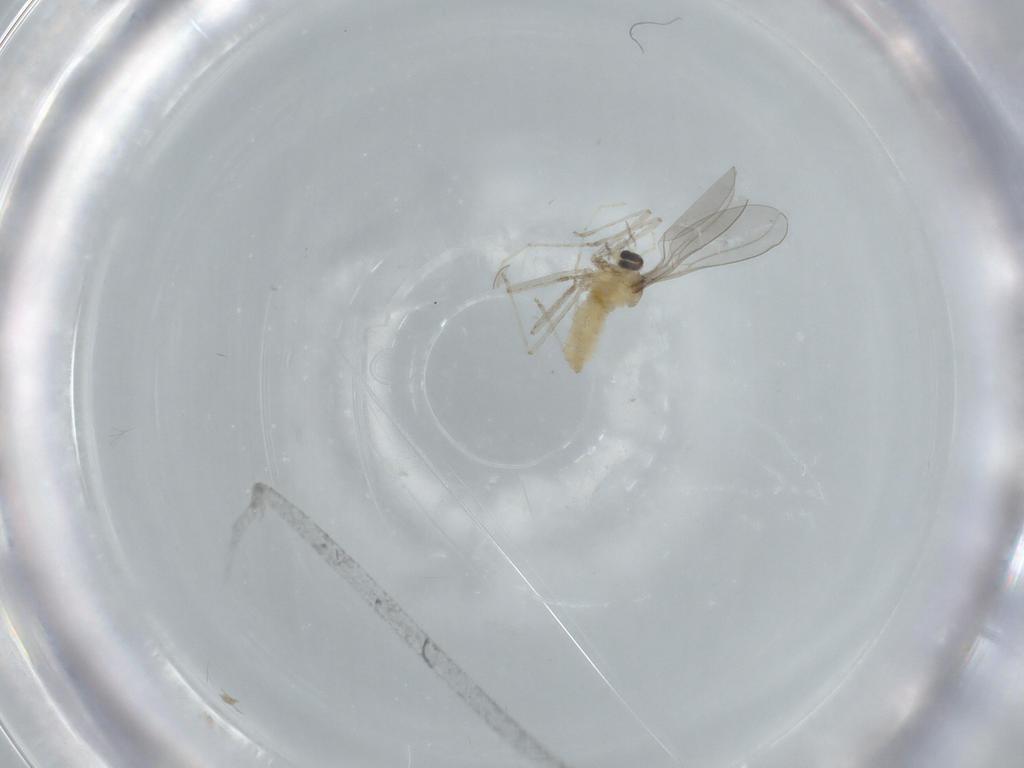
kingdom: Animalia
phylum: Arthropoda
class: Insecta
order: Diptera
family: Cecidomyiidae
